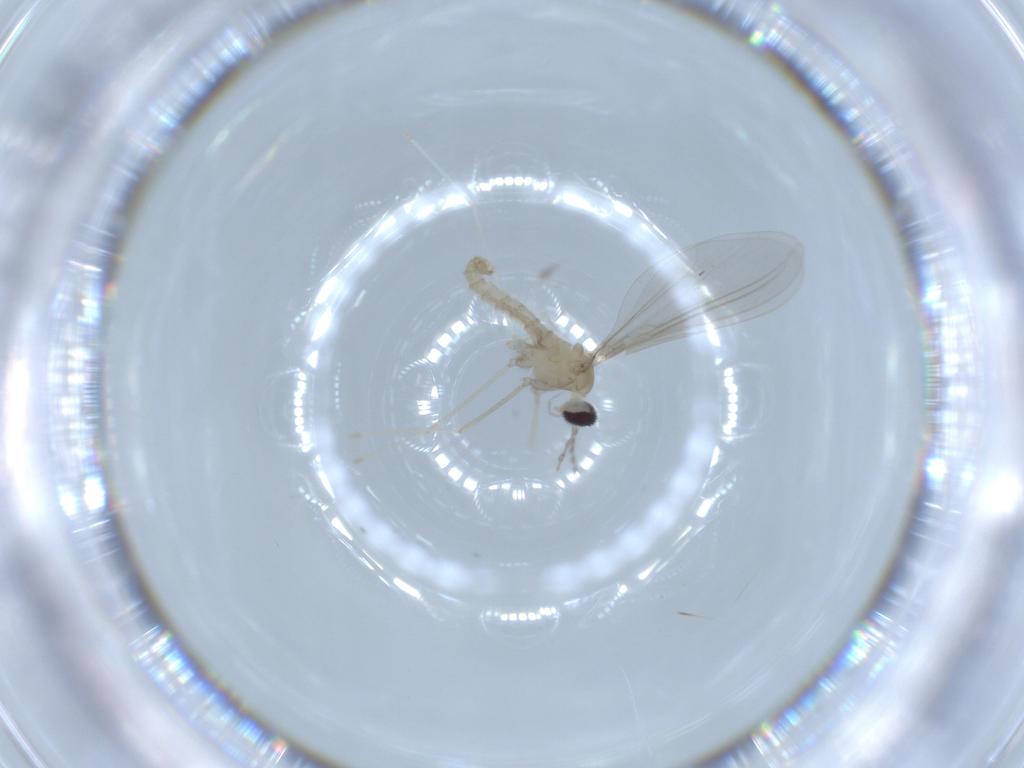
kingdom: Animalia
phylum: Arthropoda
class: Insecta
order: Diptera
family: Cecidomyiidae
